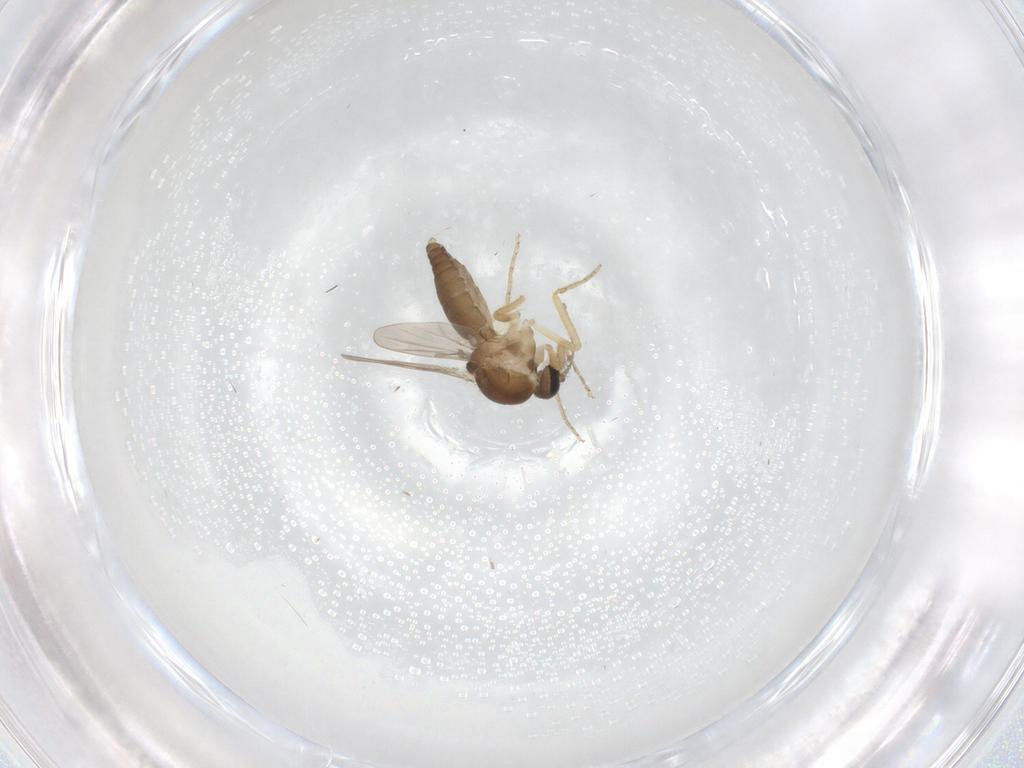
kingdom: Animalia
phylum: Arthropoda
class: Insecta
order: Diptera
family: Ceratopogonidae
